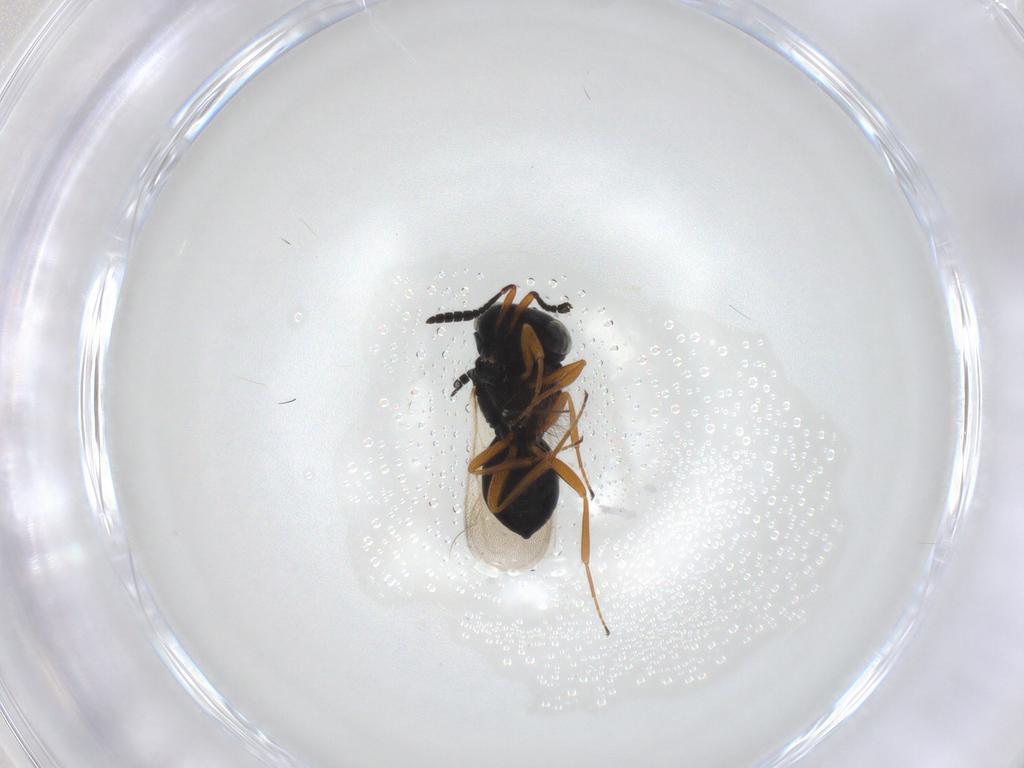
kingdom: Animalia
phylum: Arthropoda
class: Insecta
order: Hymenoptera
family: Scelionidae
